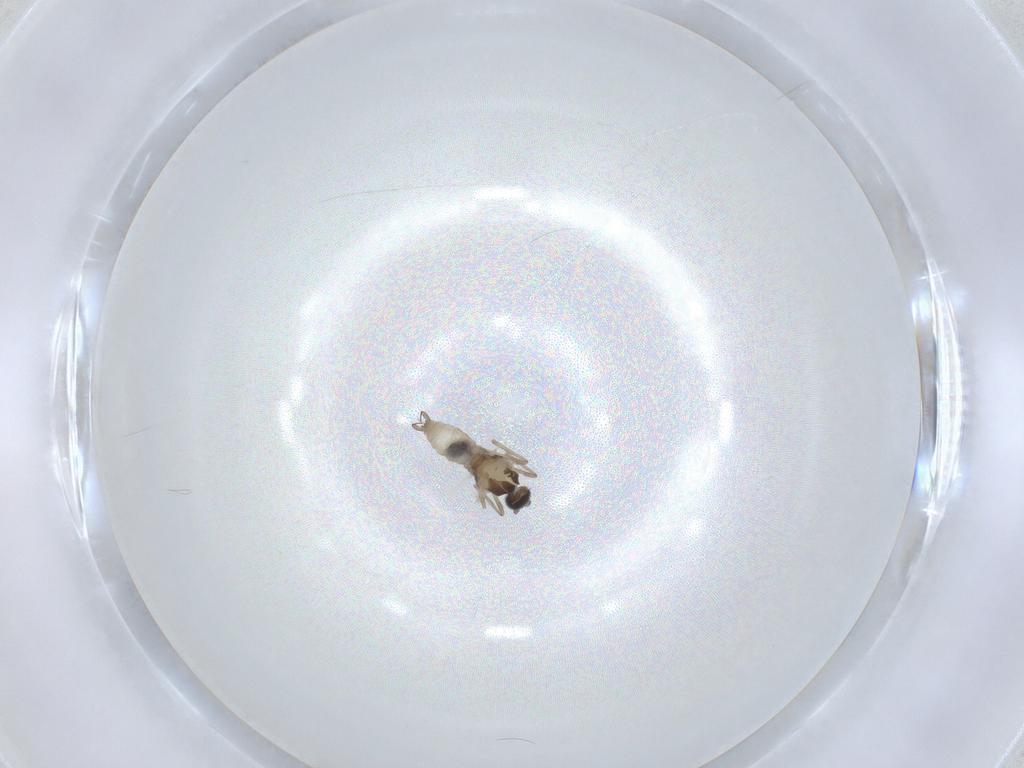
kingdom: Animalia
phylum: Arthropoda
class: Insecta
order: Diptera
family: Chironomidae
